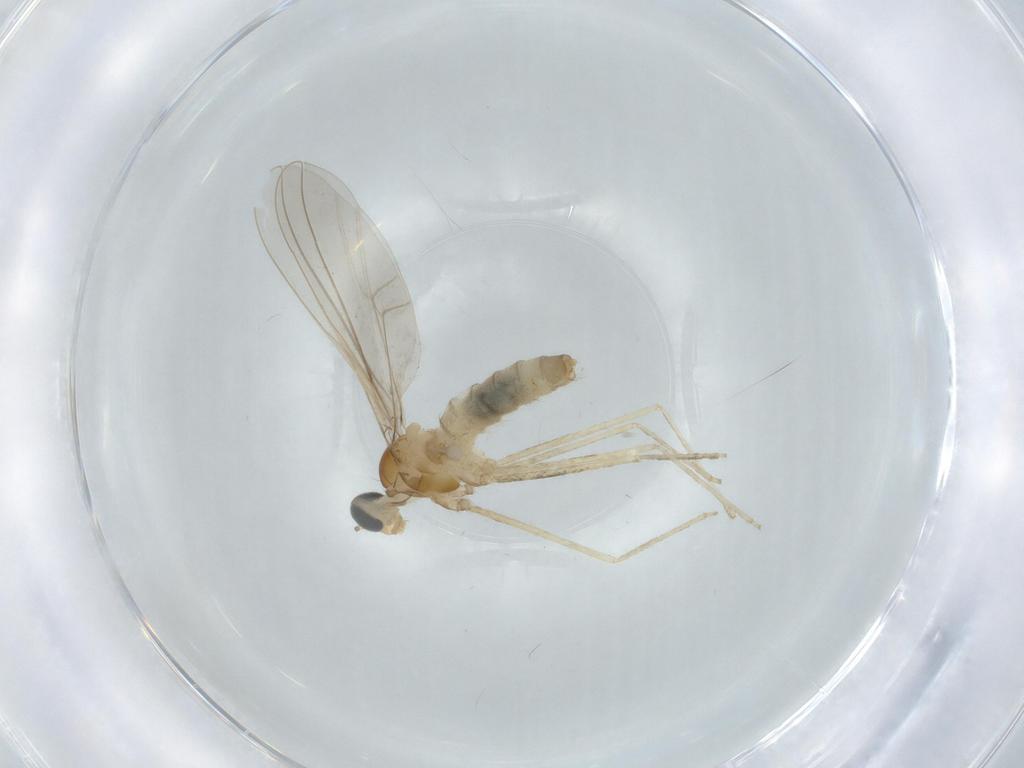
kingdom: Animalia
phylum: Arthropoda
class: Insecta
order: Diptera
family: Cecidomyiidae
